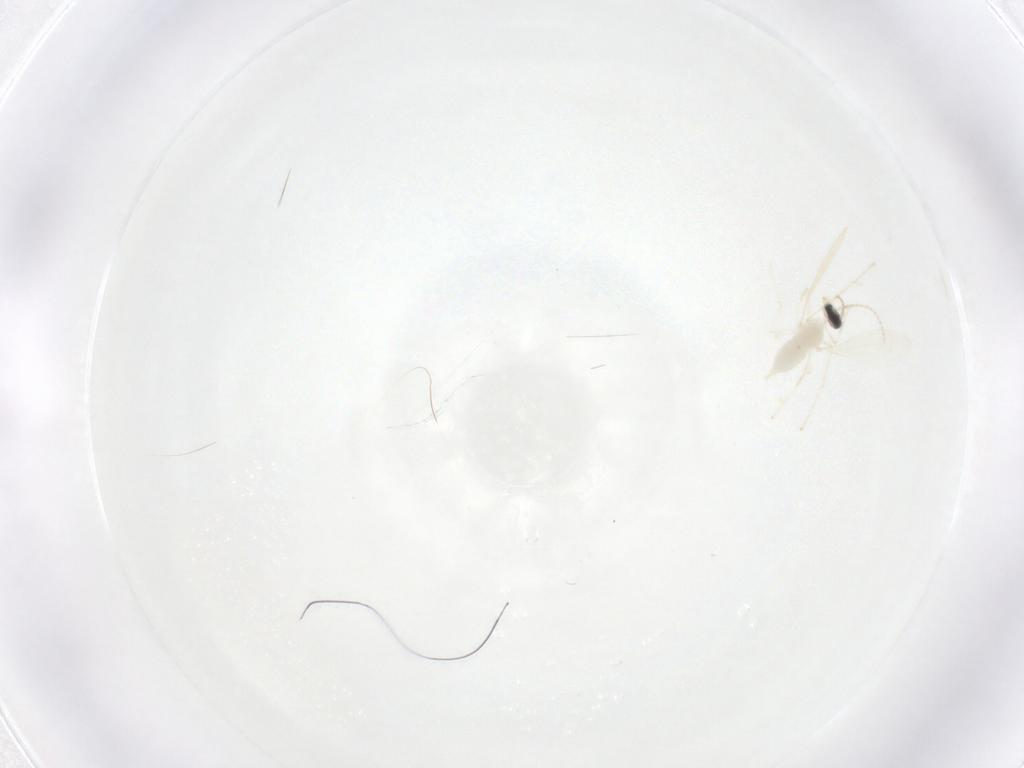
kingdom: Animalia
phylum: Arthropoda
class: Insecta
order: Diptera
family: Cecidomyiidae
